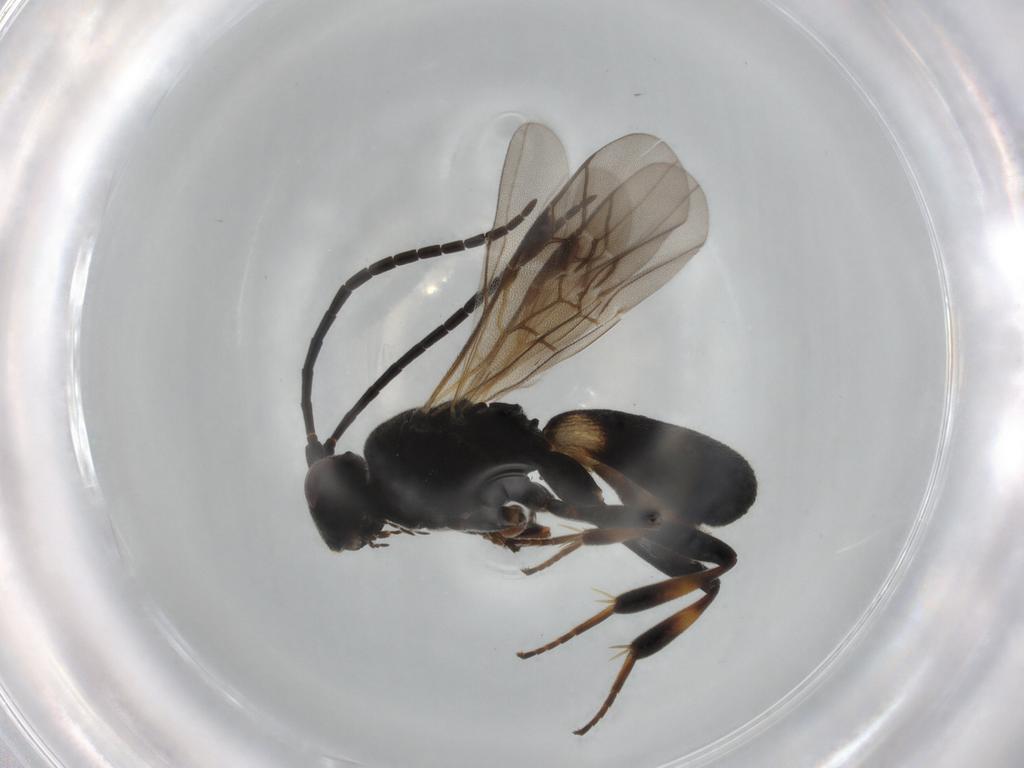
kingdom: Animalia
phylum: Arthropoda
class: Insecta
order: Hymenoptera
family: Braconidae
